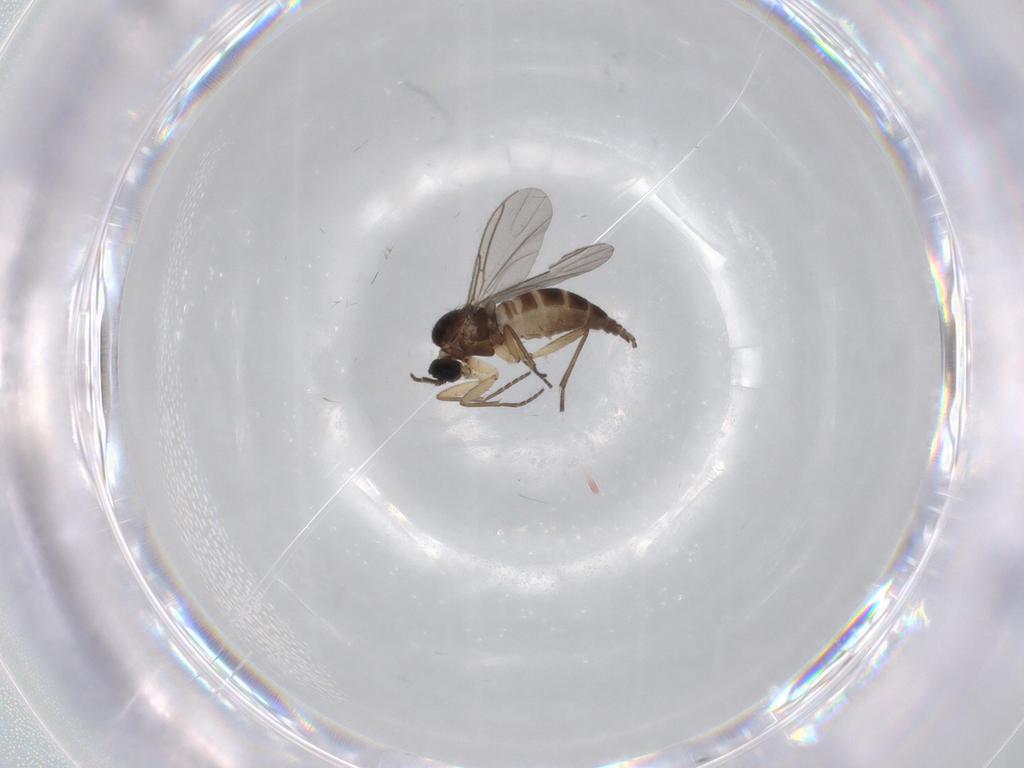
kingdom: Animalia
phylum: Arthropoda
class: Insecta
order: Diptera
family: Sciaridae
